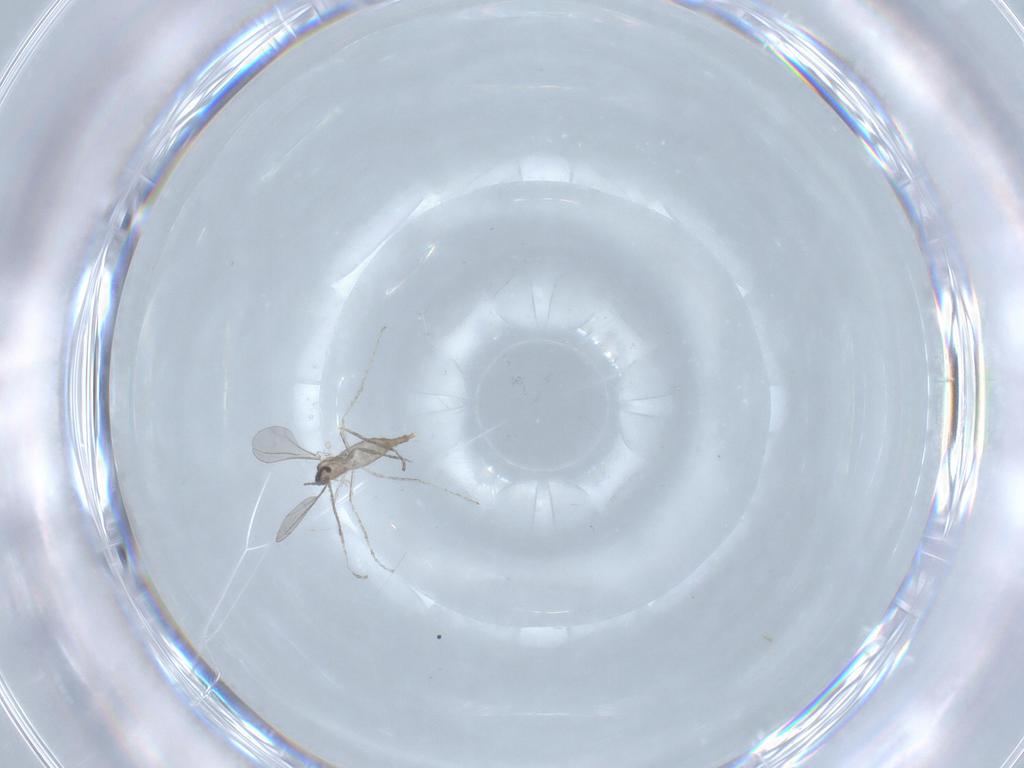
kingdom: Animalia
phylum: Arthropoda
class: Insecta
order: Diptera
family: Cecidomyiidae
